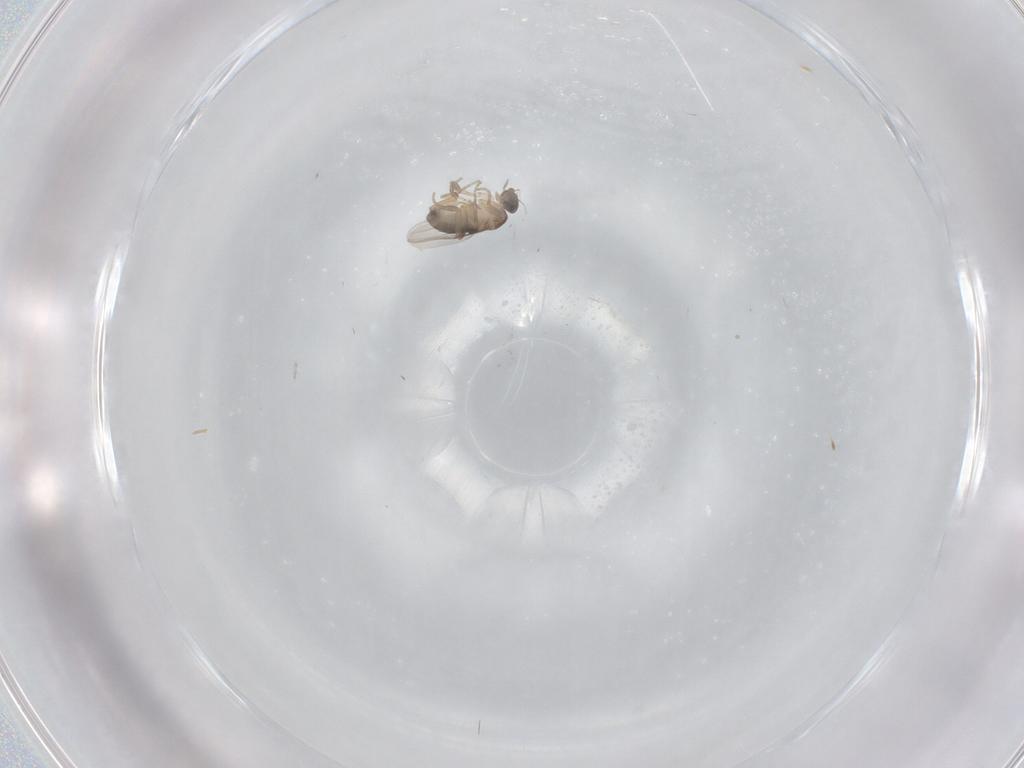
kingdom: Animalia
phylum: Arthropoda
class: Insecta
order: Diptera
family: Phoridae
